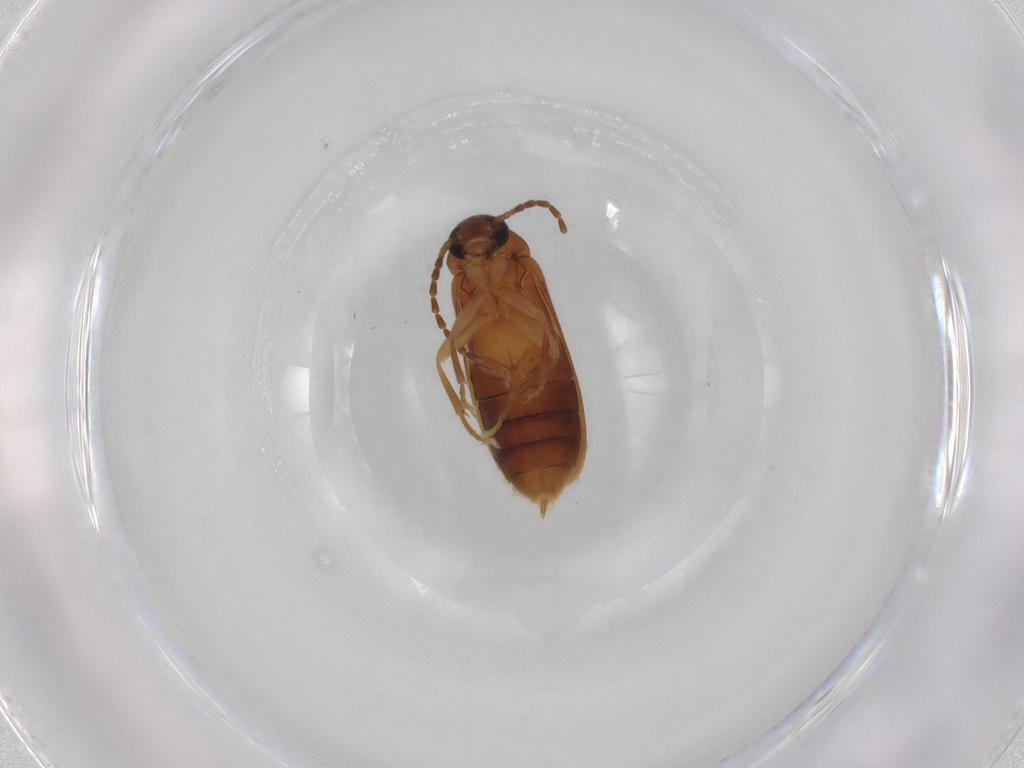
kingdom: Animalia
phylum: Arthropoda
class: Insecta
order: Coleoptera
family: Scraptiidae
